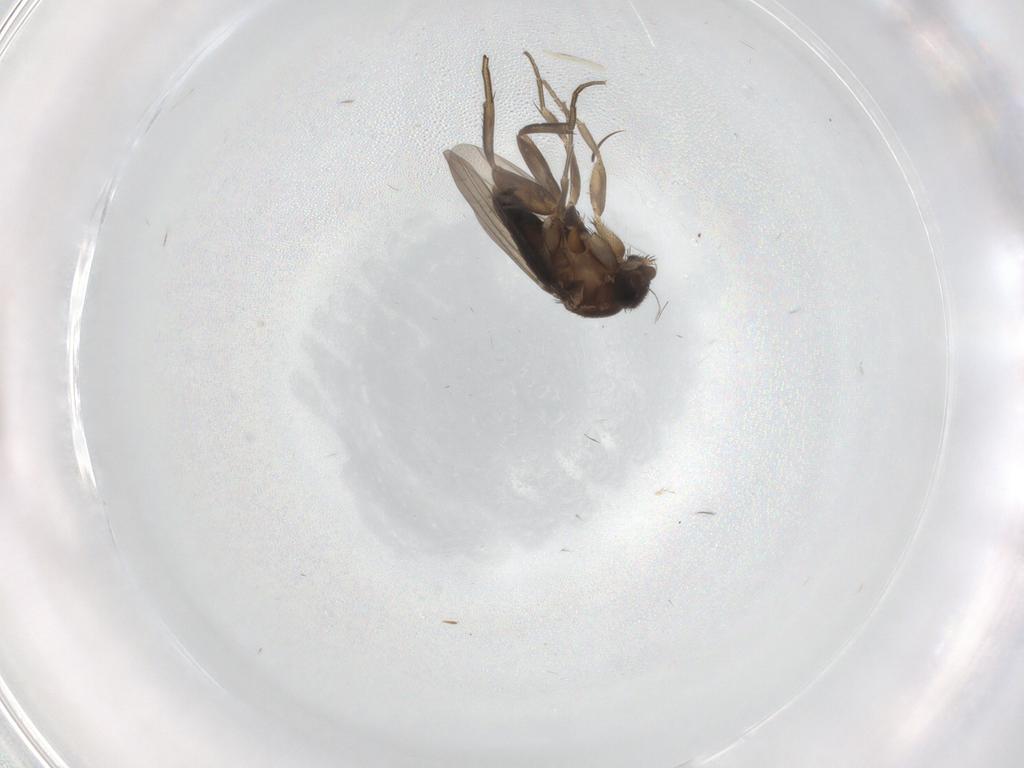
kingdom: Animalia
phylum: Arthropoda
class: Insecta
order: Diptera
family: Phoridae
